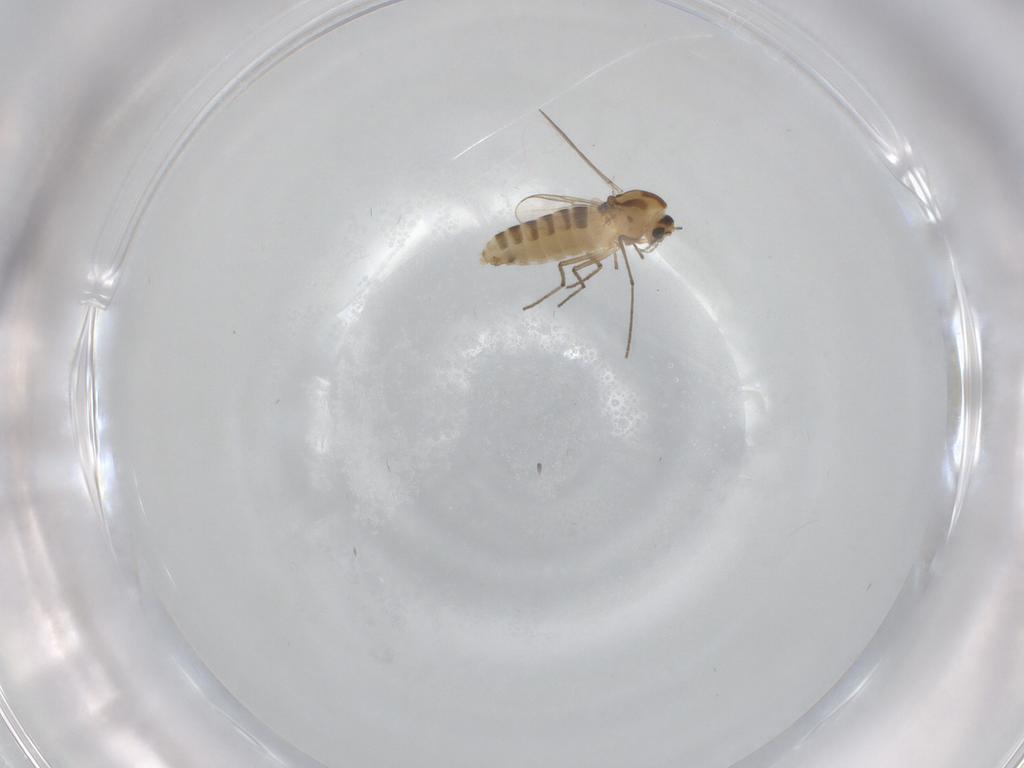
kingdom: Animalia
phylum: Arthropoda
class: Insecta
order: Diptera
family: Chironomidae
